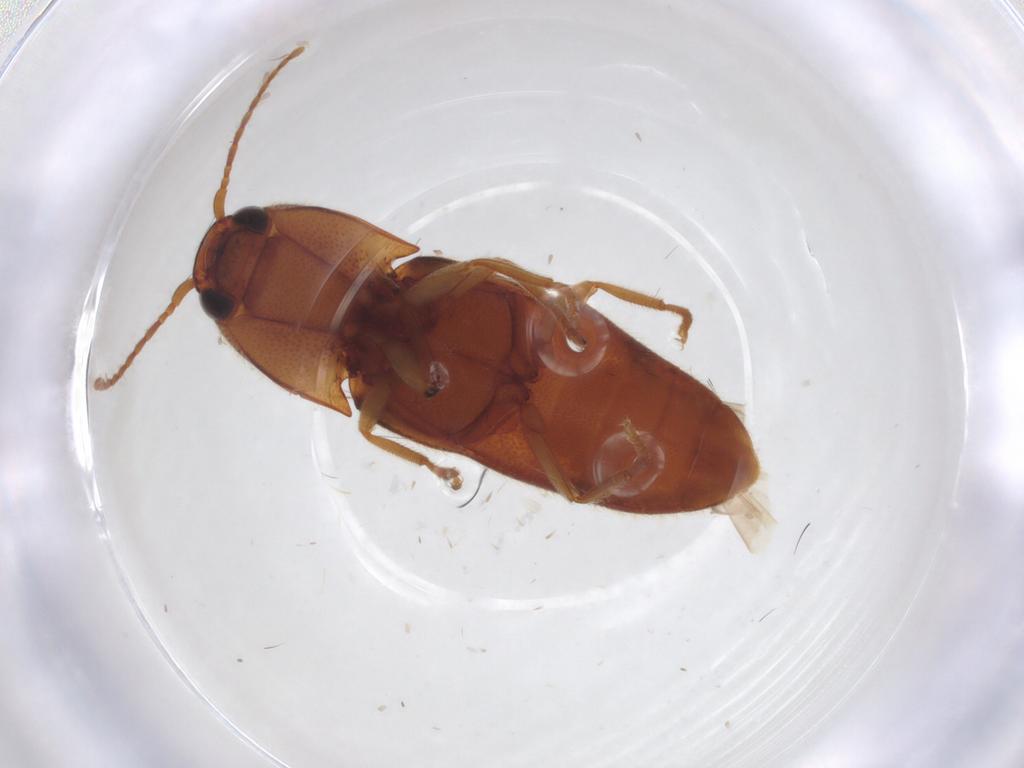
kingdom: Animalia
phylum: Arthropoda
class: Insecta
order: Coleoptera
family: Elateridae
